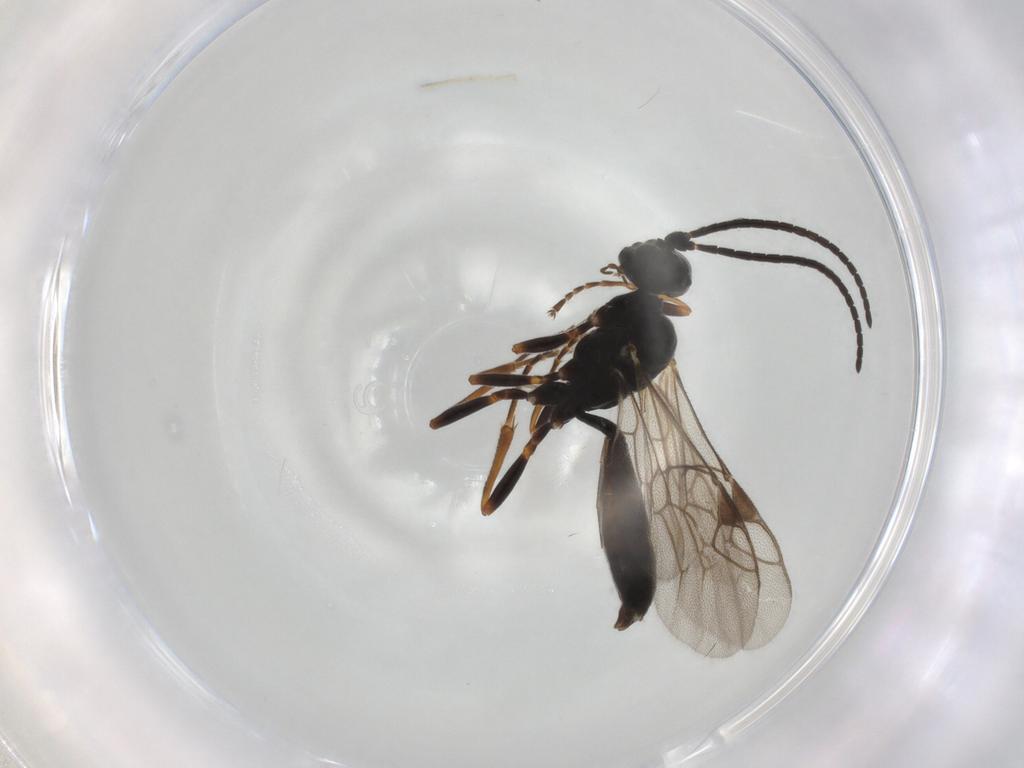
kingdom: Animalia
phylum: Arthropoda
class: Insecta
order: Hymenoptera
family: Ichneumonidae
